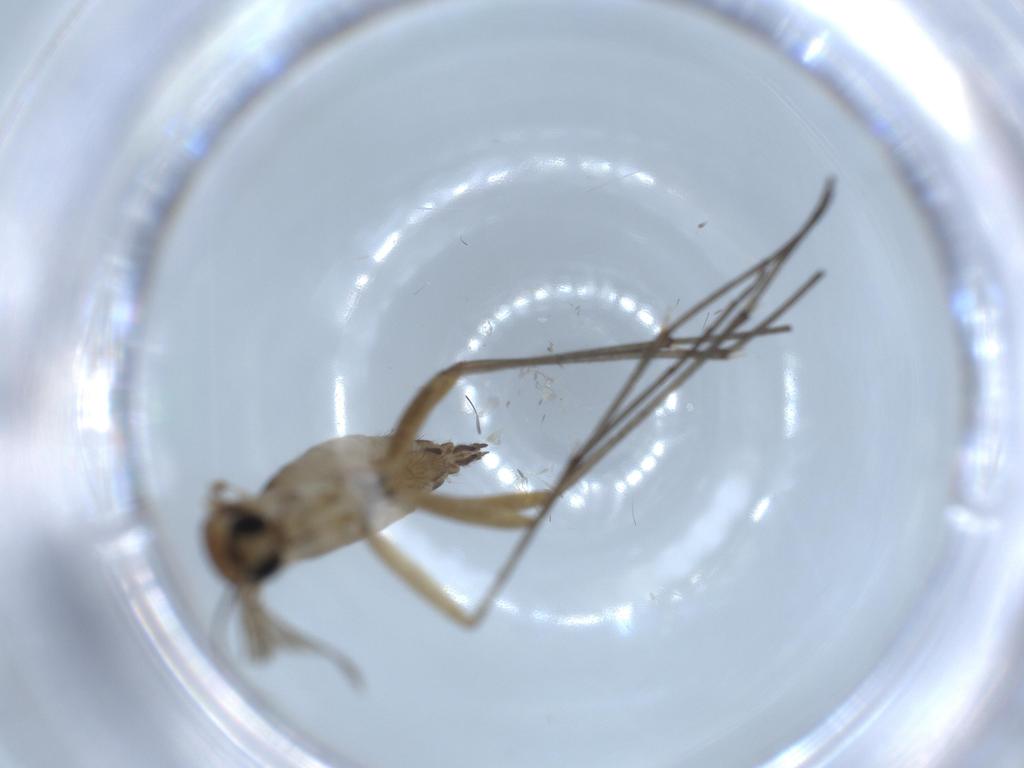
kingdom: Animalia
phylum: Arthropoda
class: Insecta
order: Diptera
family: Sciaridae
